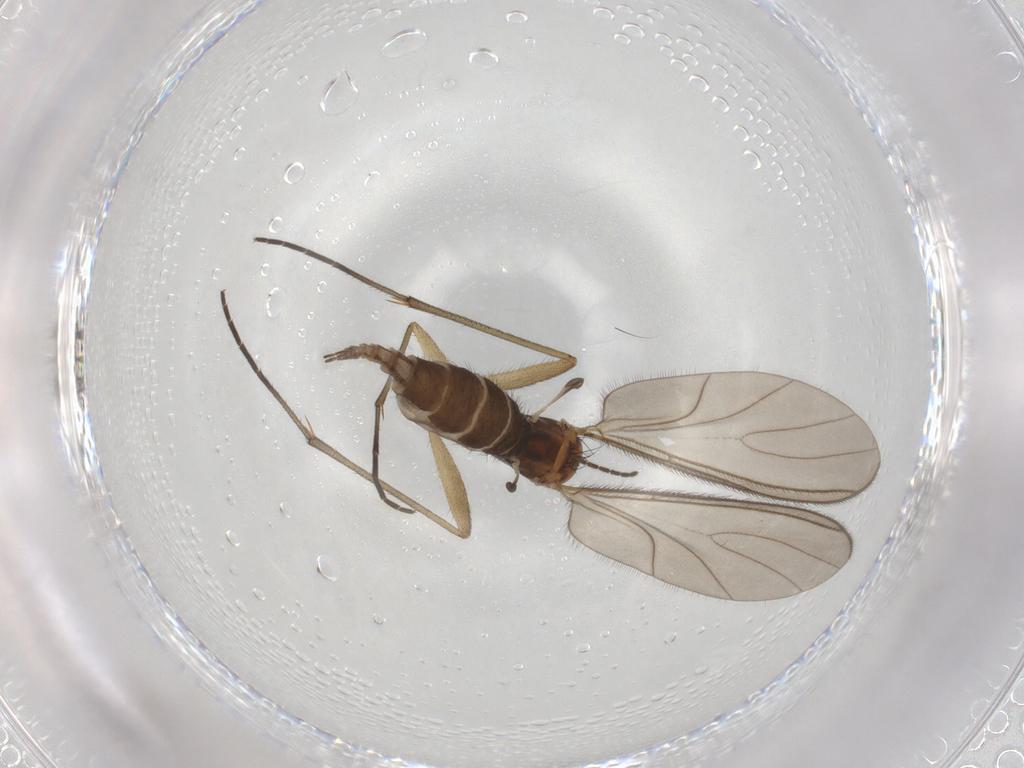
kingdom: Animalia
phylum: Arthropoda
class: Insecta
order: Diptera
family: Sciaridae
